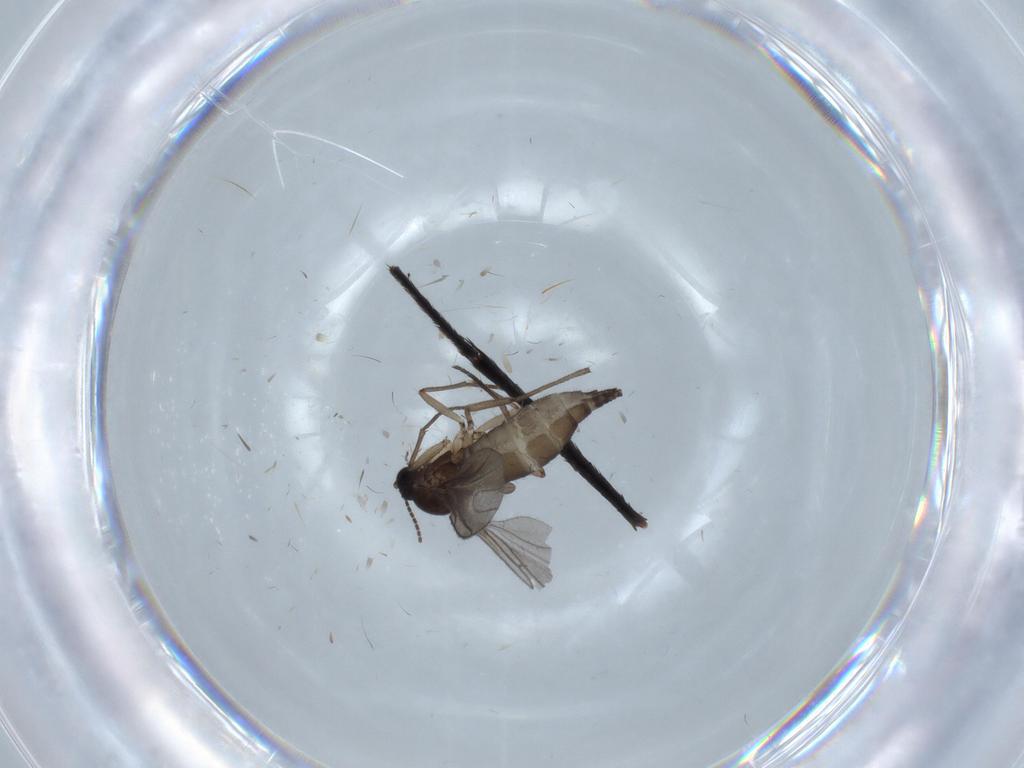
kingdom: Animalia
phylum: Arthropoda
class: Insecta
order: Diptera
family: Sciaridae
